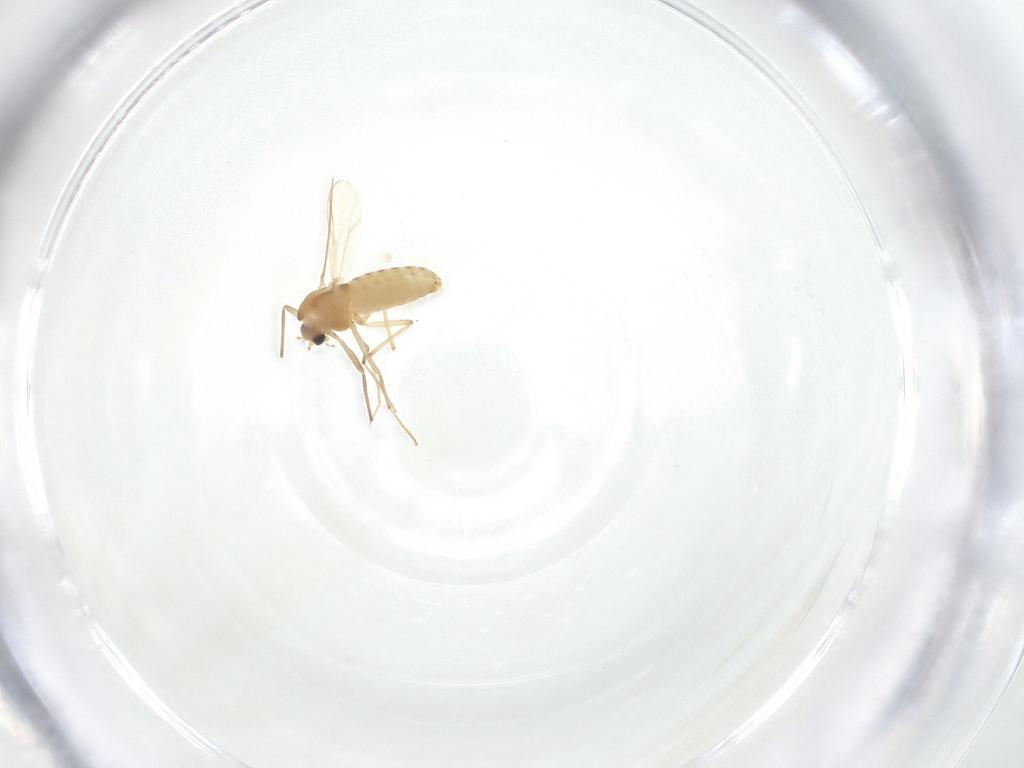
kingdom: Animalia
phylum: Arthropoda
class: Insecta
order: Diptera
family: Chironomidae
